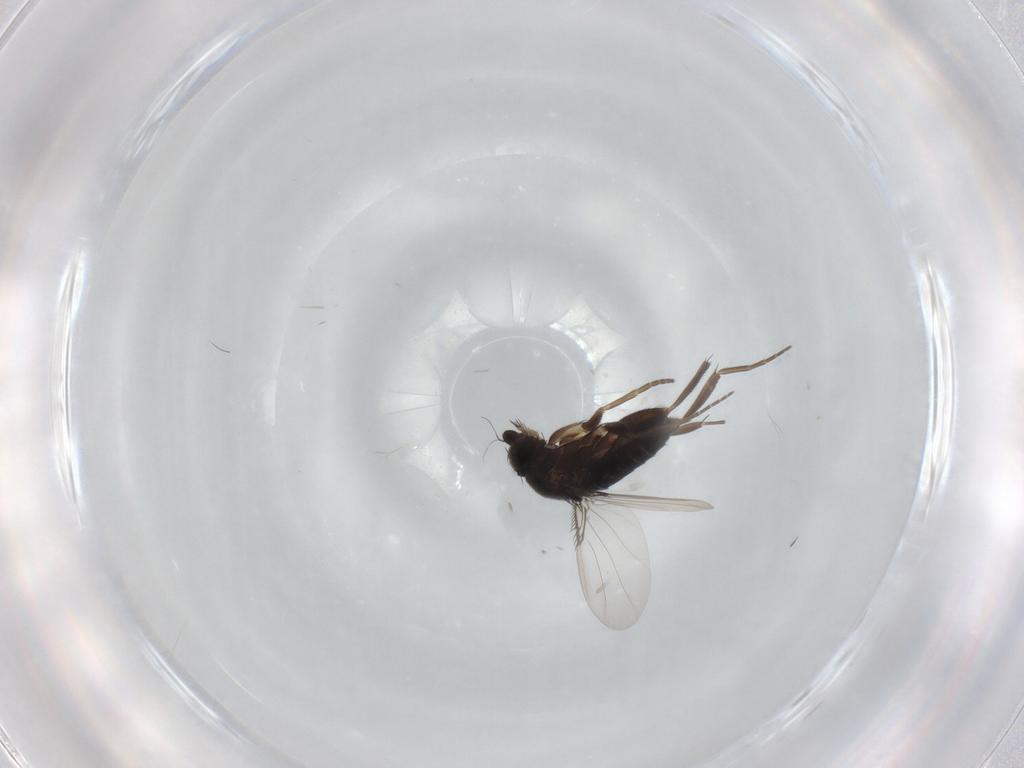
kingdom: Animalia
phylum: Arthropoda
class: Insecta
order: Diptera
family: Phoridae
